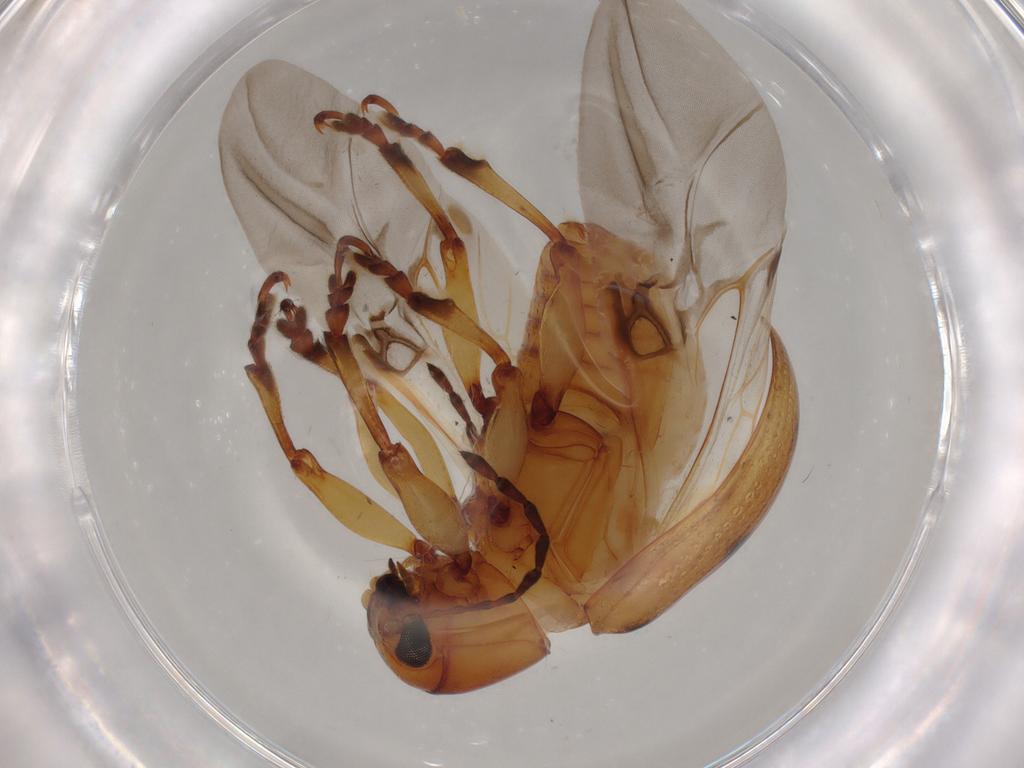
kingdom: Animalia
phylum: Arthropoda
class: Insecta
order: Coleoptera
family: Chrysomelidae
